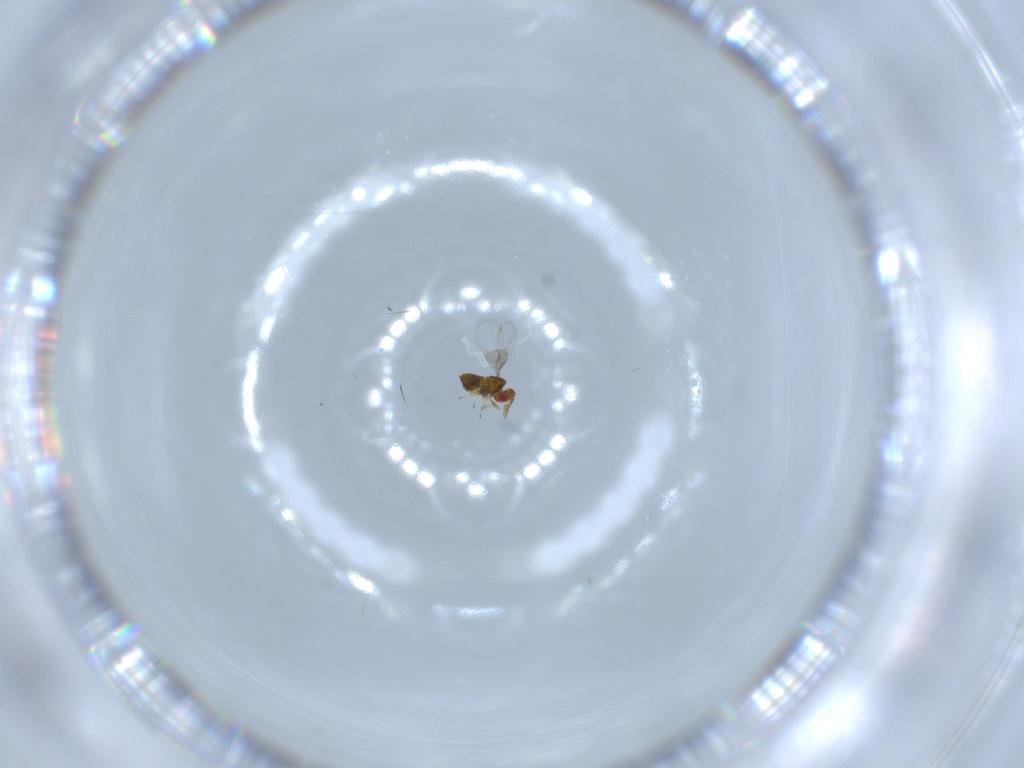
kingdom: Animalia
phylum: Arthropoda
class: Insecta
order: Hymenoptera
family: Trichogrammatidae
